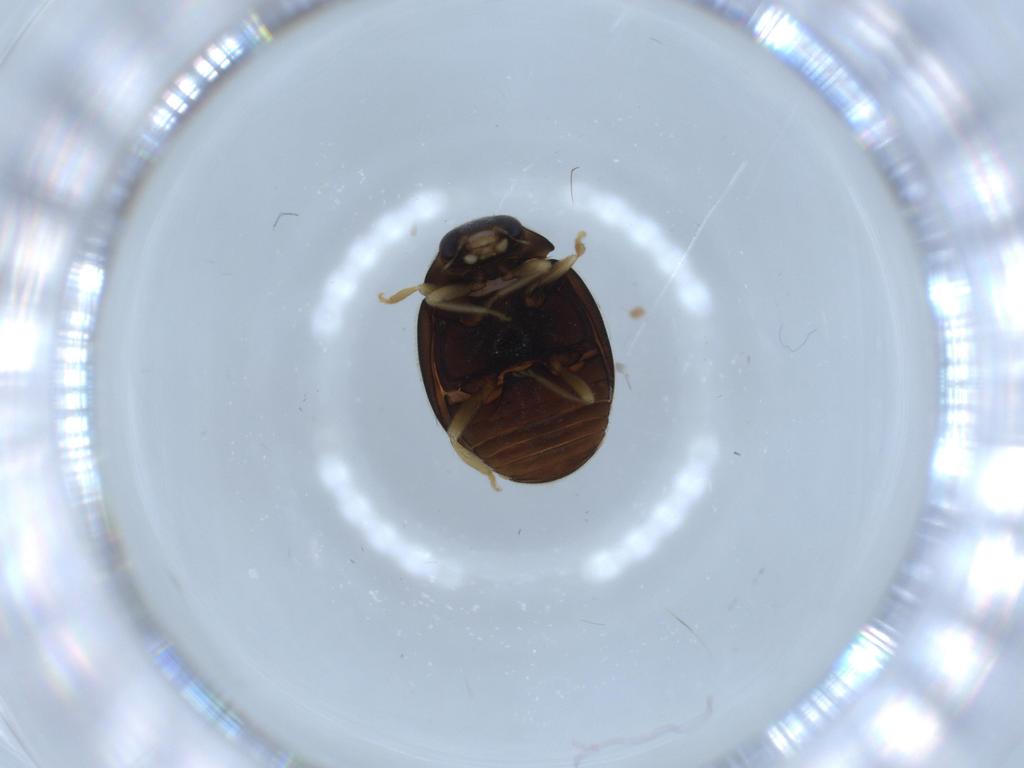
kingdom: Animalia
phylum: Arthropoda
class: Insecta
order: Coleoptera
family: Coccinellidae
